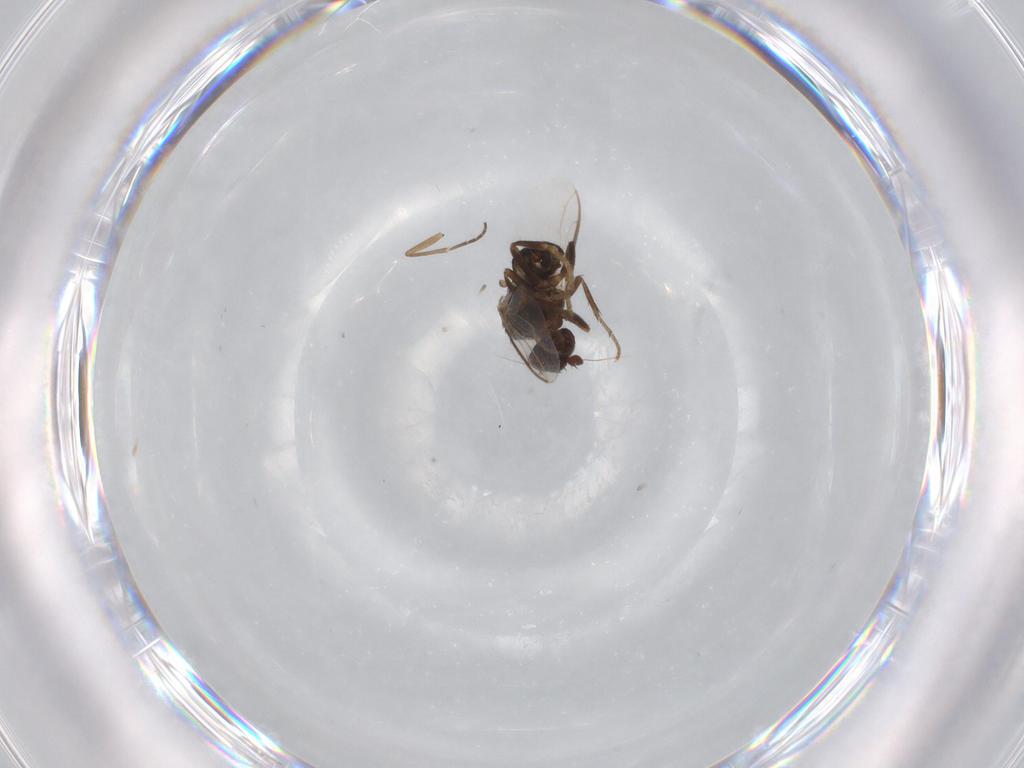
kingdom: Animalia
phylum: Arthropoda
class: Insecta
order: Diptera
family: Sphaeroceridae
